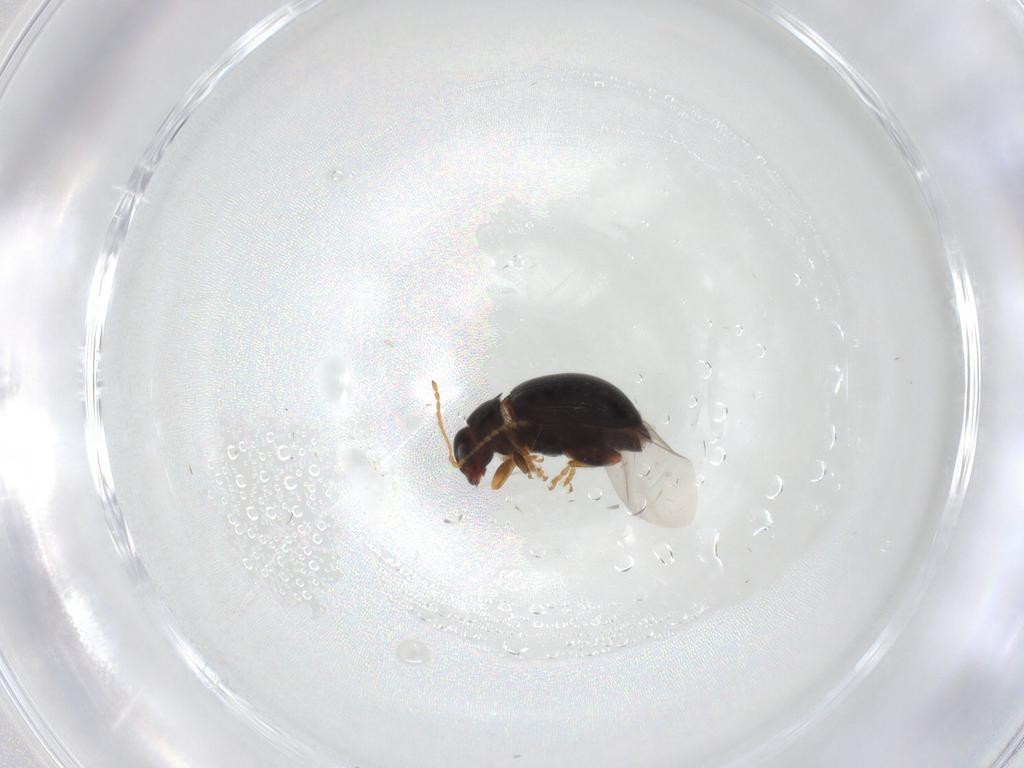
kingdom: Animalia
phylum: Arthropoda
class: Insecta
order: Coleoptera
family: Chrysomelidae
